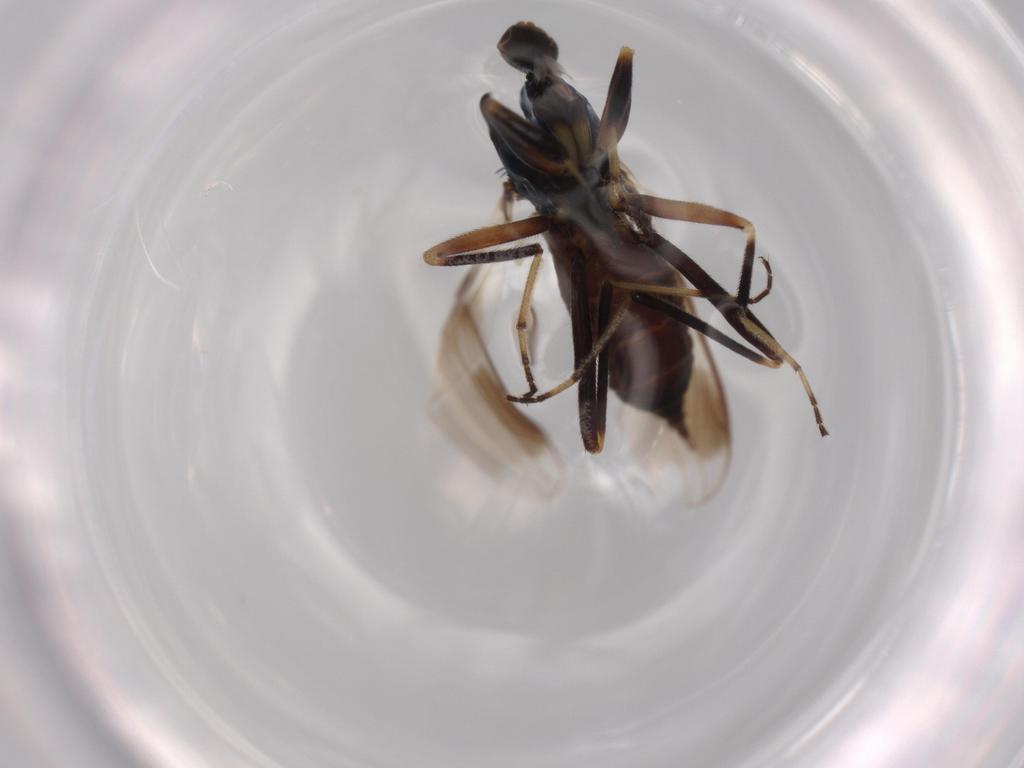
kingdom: Animalia
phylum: Arthropoda
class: Insecta
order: Diptera
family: Hybotidae
